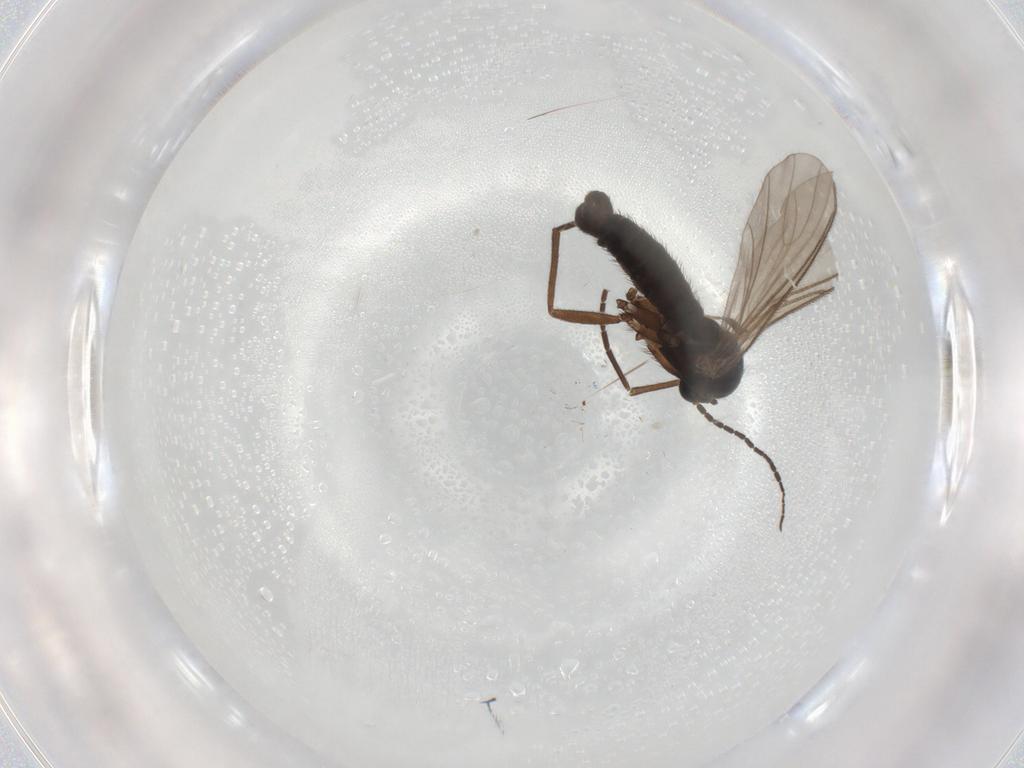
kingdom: Animalia
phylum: Arthropoda
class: Insecta
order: Diptera
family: Sciaridae
